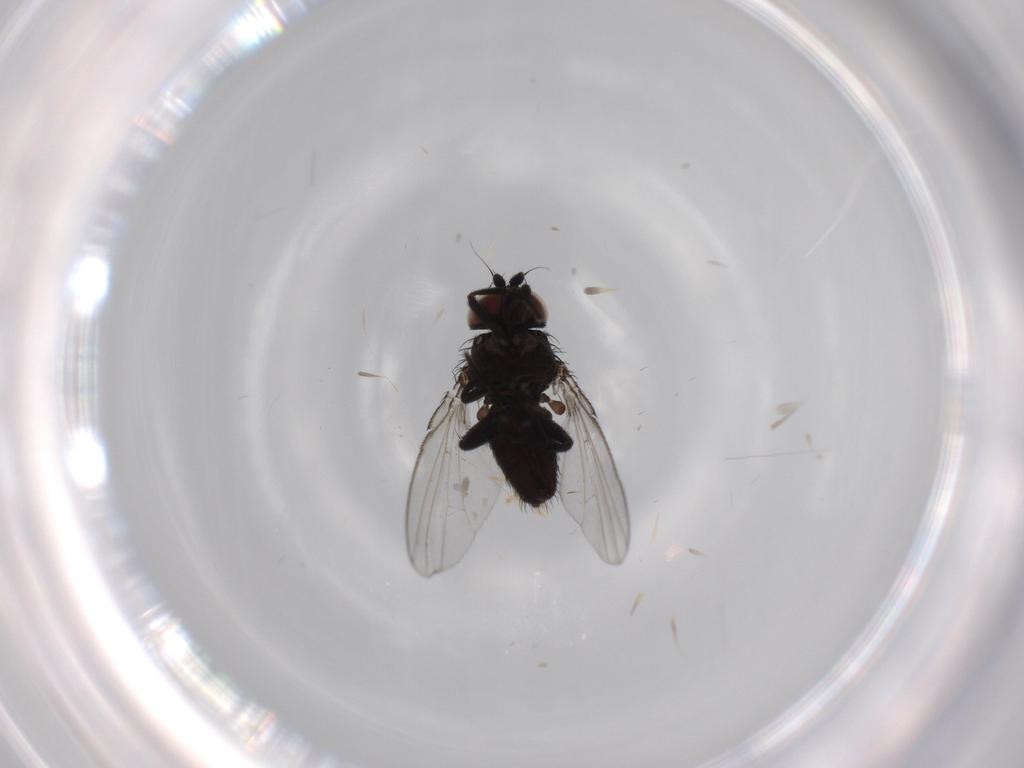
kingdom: Animalia
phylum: Arthropoda
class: Insecta
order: Diptera
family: Milichiidae
